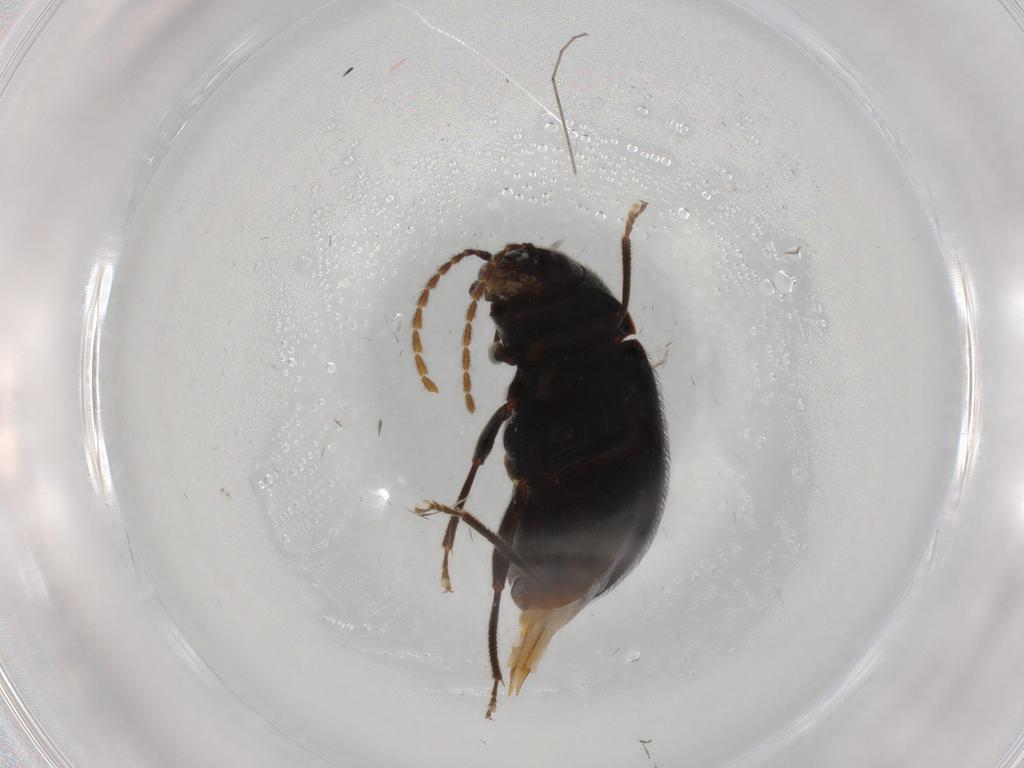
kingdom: Animalia
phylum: Arthropoda
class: Insecta
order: Coleoptera
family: Ptilodactylidae
